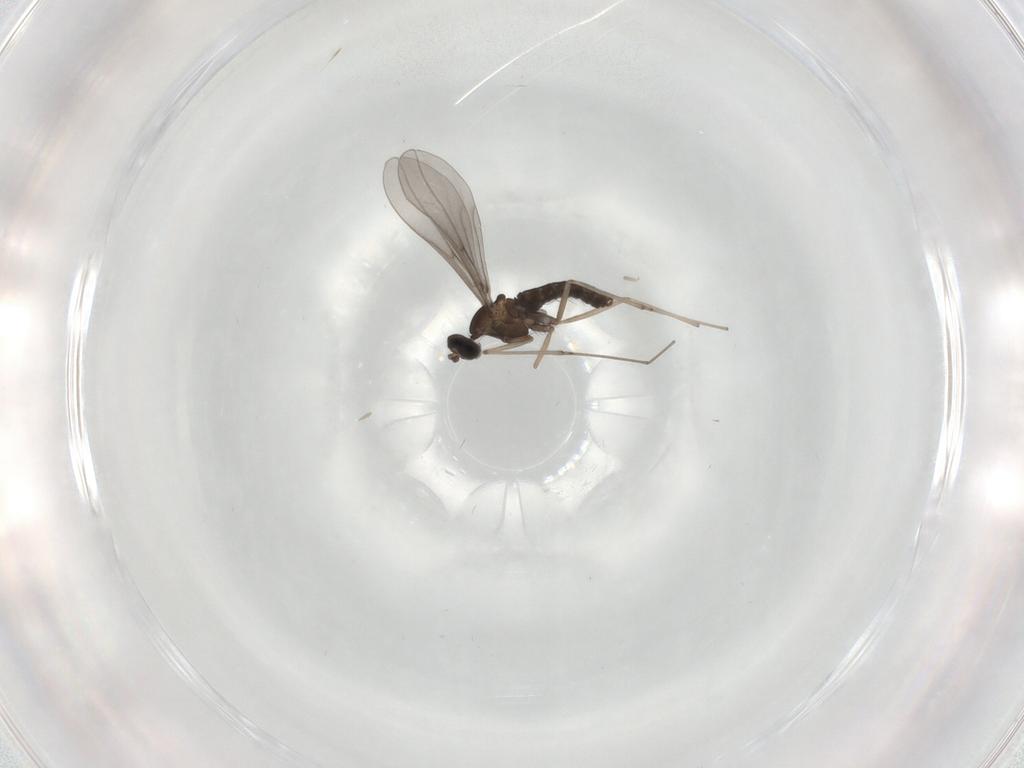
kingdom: Animalia
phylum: Arthropoda
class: Insecta
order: Diptera
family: Cecidomyiidae
